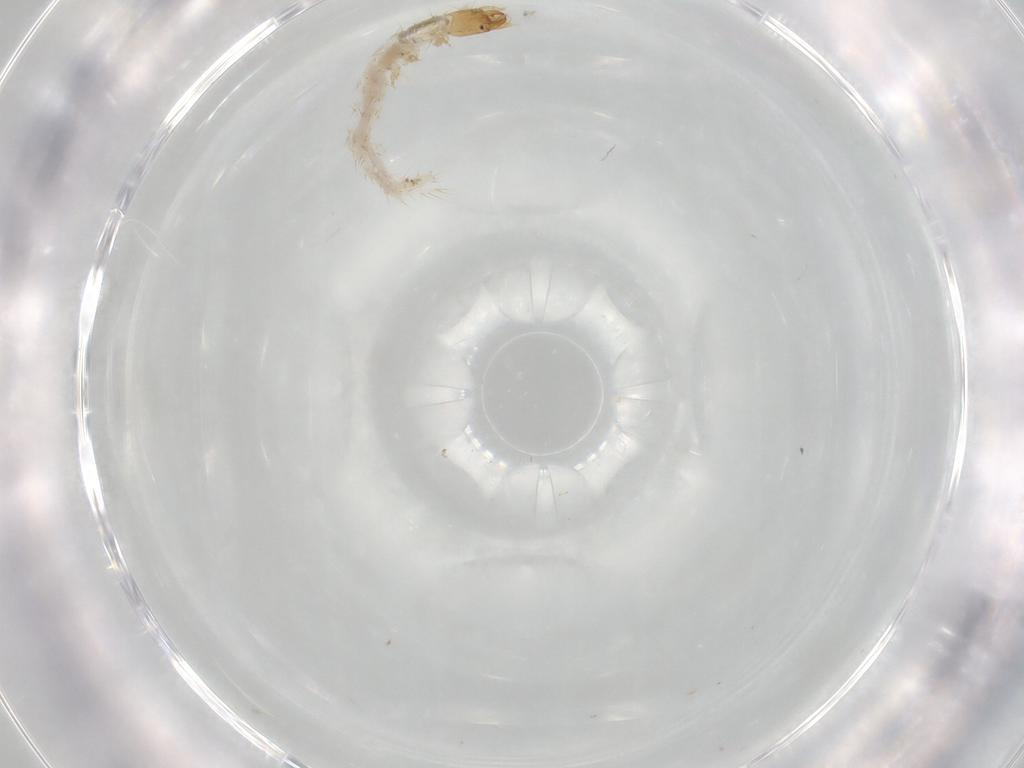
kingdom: Animalia
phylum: Arthropoda
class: Insecta
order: Coleoptera
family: Carabidae
